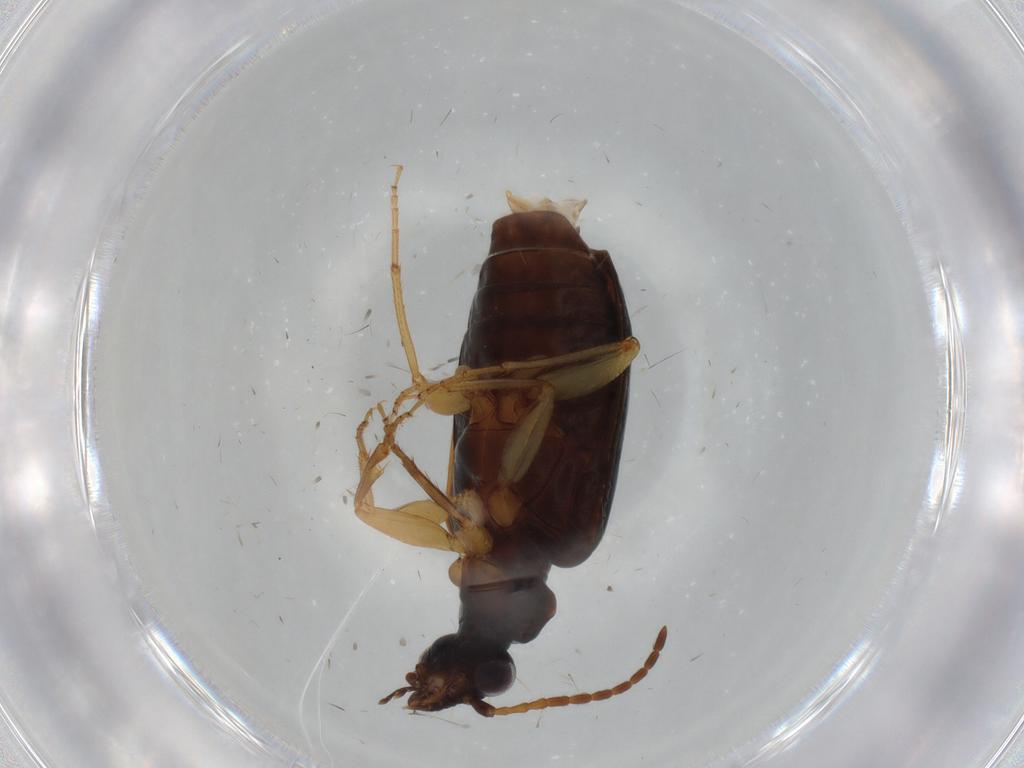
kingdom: Animalia
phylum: Arthropoda
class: Insecta
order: Coleoptera
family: Carabidae
